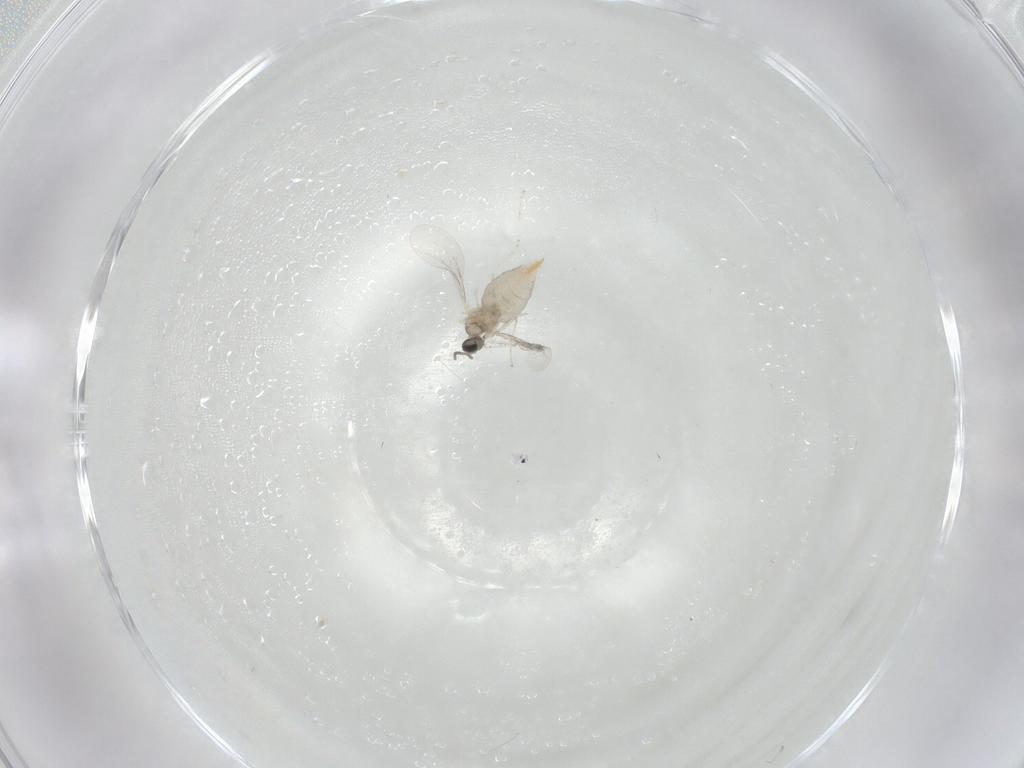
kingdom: Animalia
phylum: Arthropoda
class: Insecta
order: Diptera
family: Cecidomyiidae
